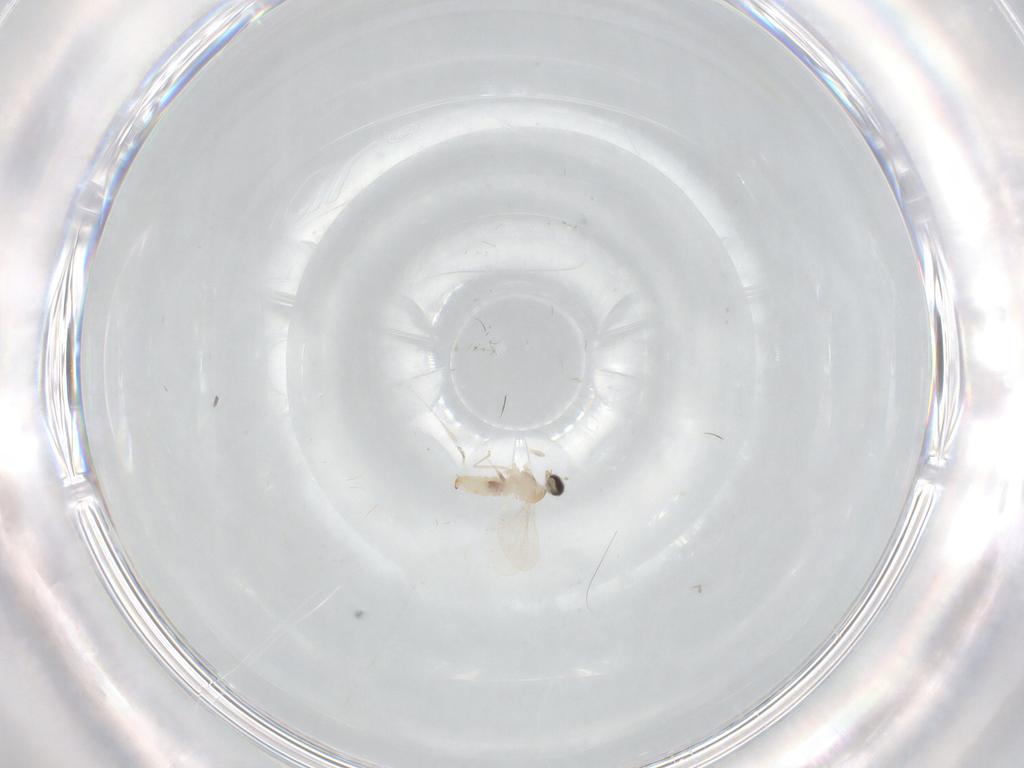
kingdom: Animalia
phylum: Arthropoda
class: Insecta
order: Diptera
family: Cecidomyiidae
